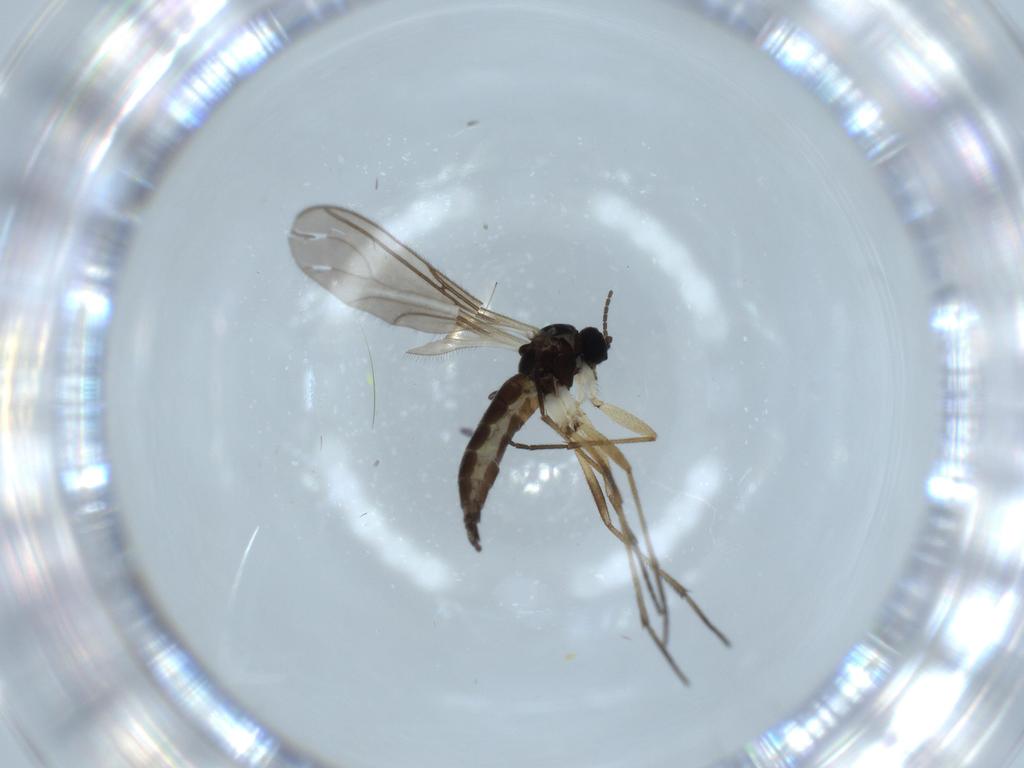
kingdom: Animalia
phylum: Arthropoda
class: Insecta
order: Diptera
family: Sciaridae
